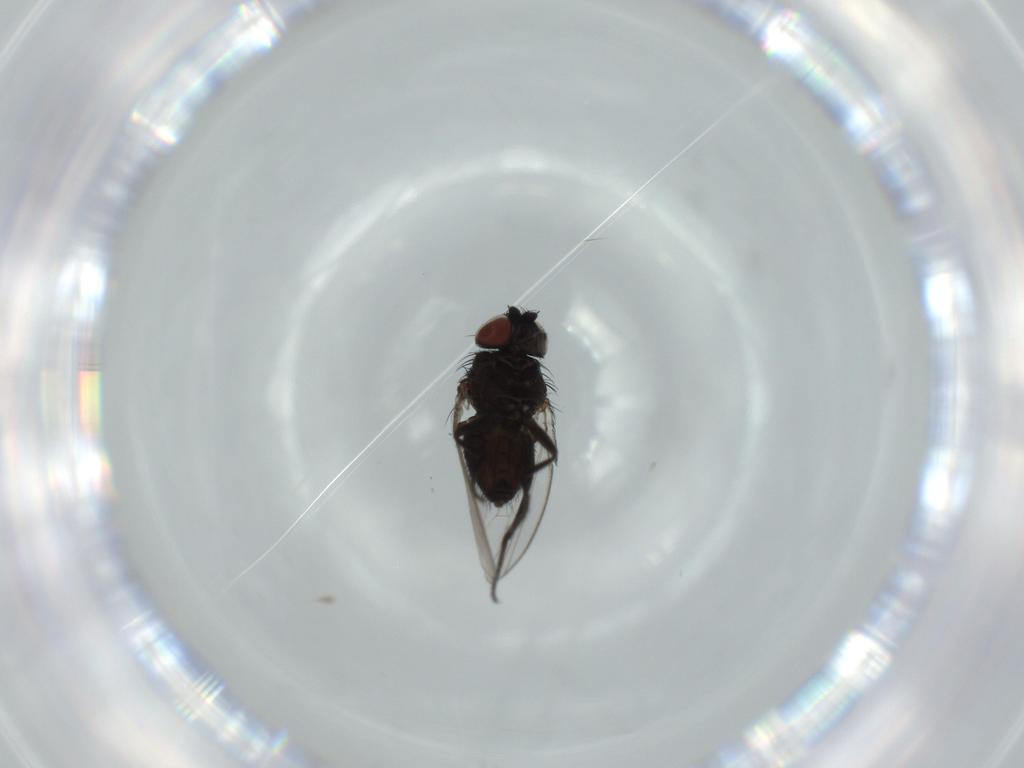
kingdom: Animalia
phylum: Arthropoda
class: Insecta
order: Diptera
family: Milichiidae
